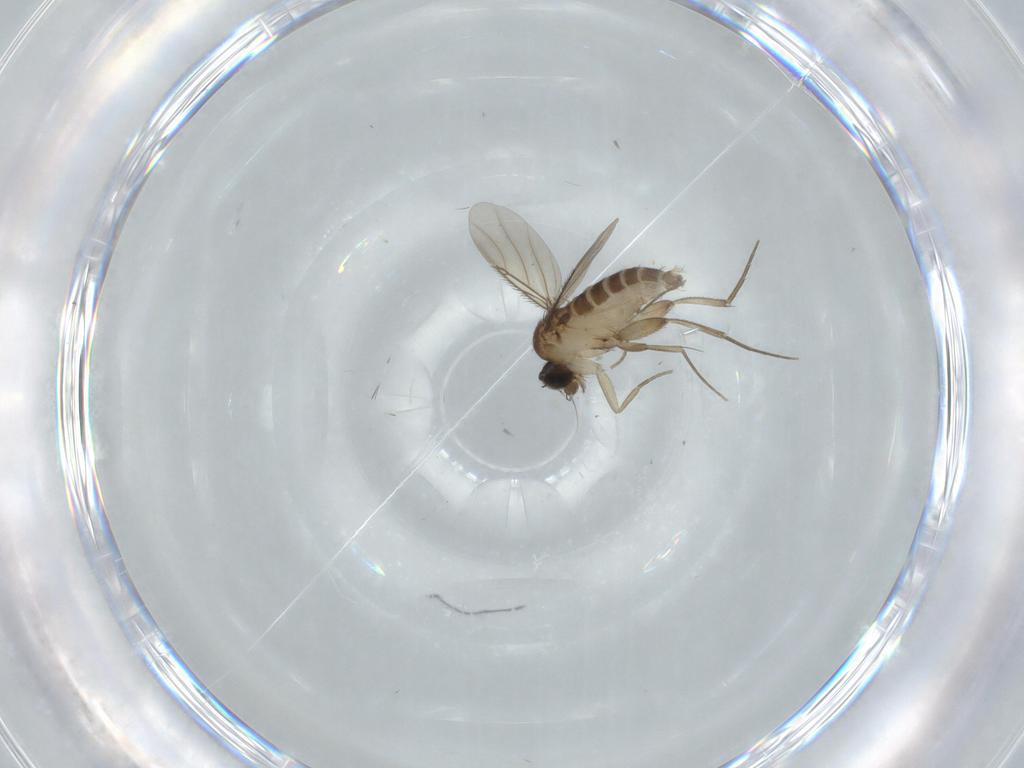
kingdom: Animalia
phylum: Arthropoda
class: Insecta
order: Diptera
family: Phoridae
